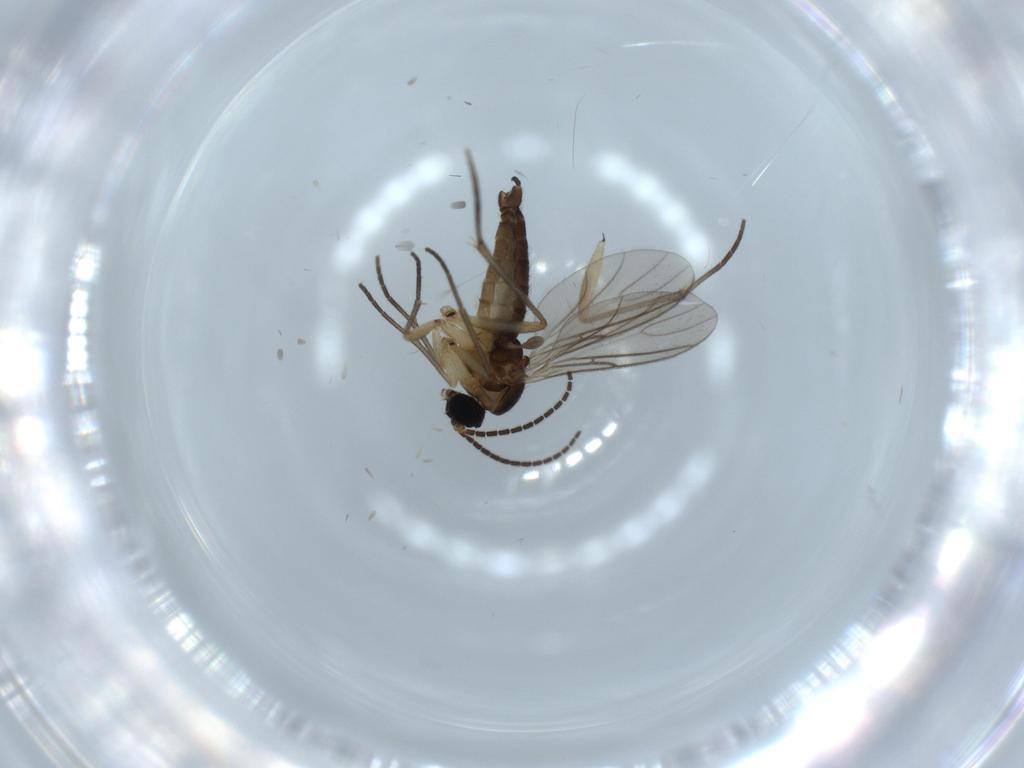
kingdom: Animalia
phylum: Arthropoda
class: Insecta
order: Diptera
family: Sciaridae
